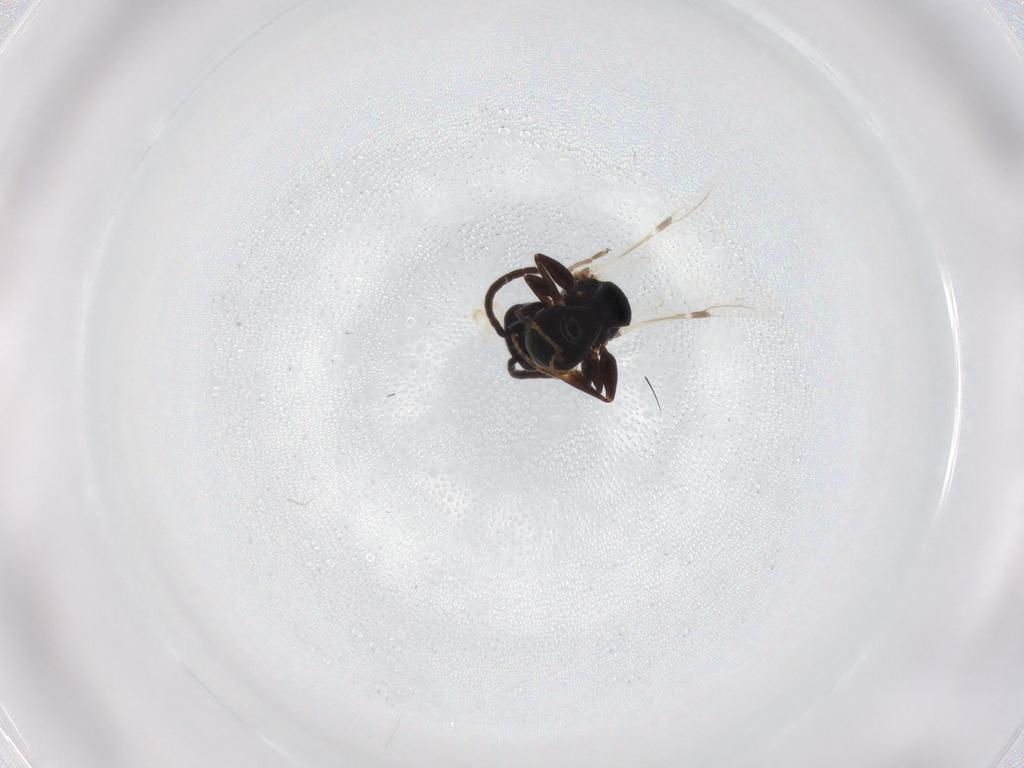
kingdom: Animalia
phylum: Arthropoda
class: Insecta
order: Hymenoptera
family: Bethylidae
